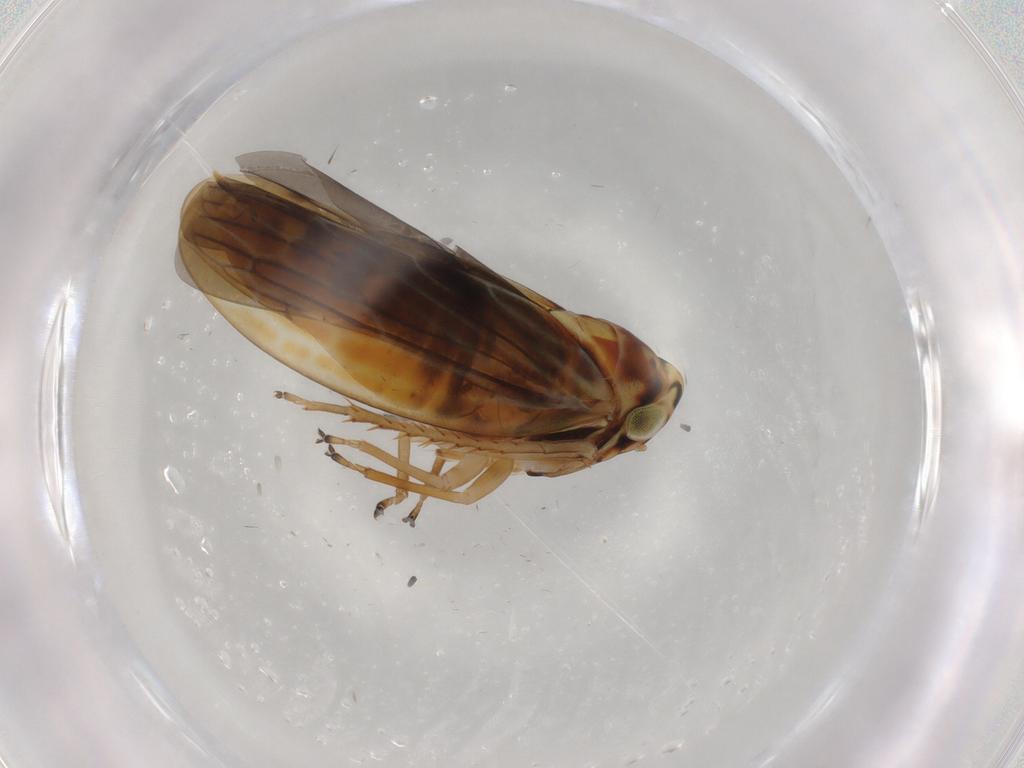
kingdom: Animalia
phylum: Arthropoda
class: Insecta
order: Hemiptera
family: Cicadellidae
